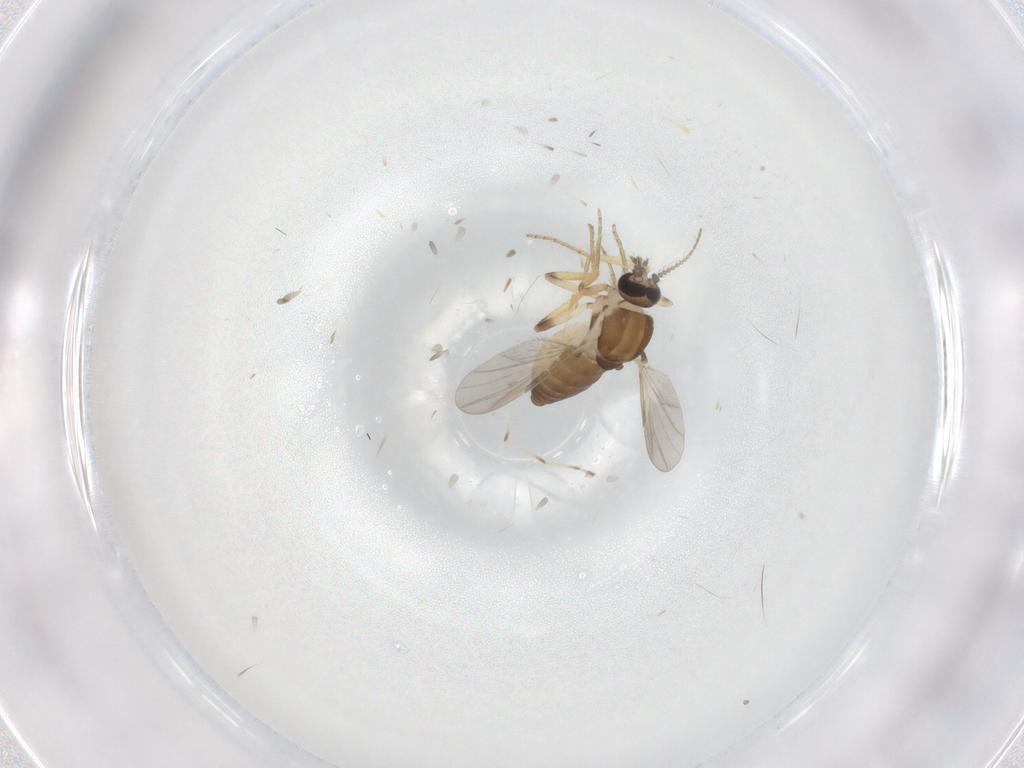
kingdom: Animalia
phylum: Arthropoda
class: Insecta
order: Diptera
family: Ceratopogonidae
